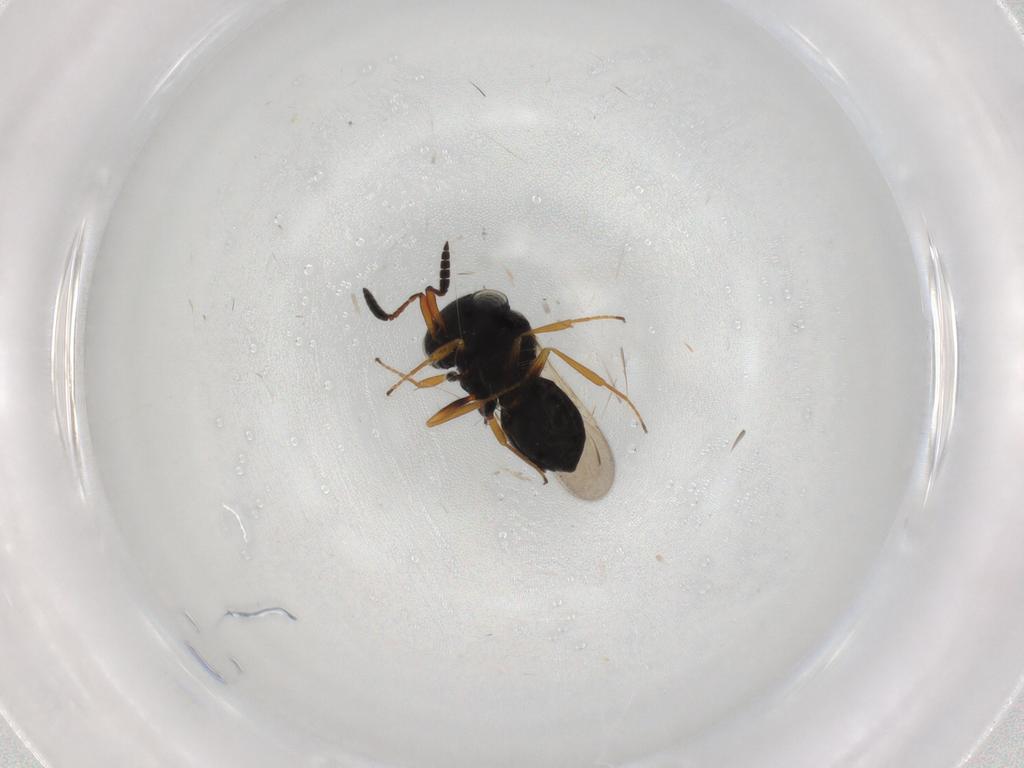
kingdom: Animalia
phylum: Arthropoda
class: Insecta
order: Hymenoptera
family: Scelionidae
